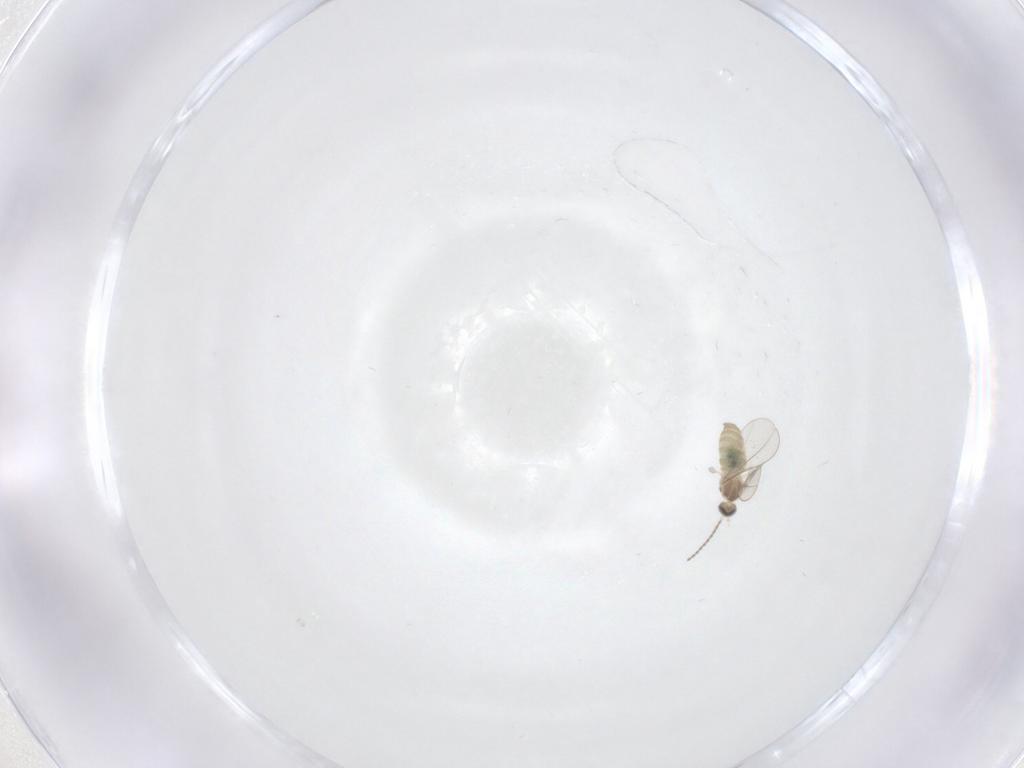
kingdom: Animalia
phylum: Arthropoda
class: Insecta
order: Diptera
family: Cecidomyiidae
